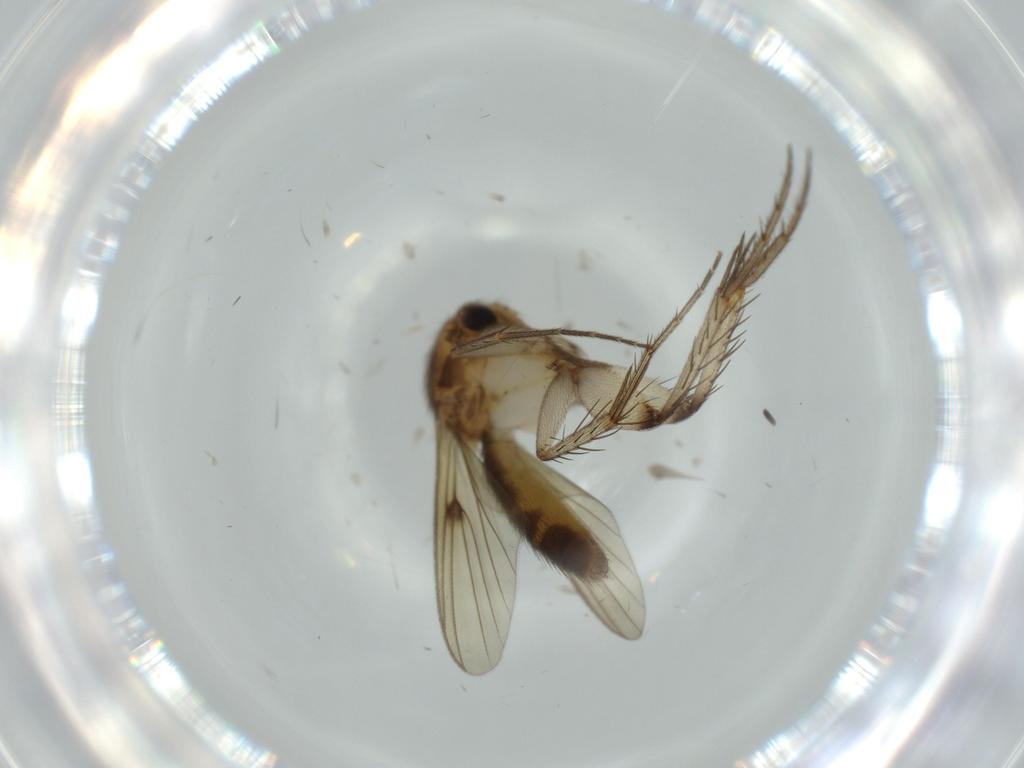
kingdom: Animalia
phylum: Arthropoda
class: Insecta
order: Diptera
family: Mycetophilidae
